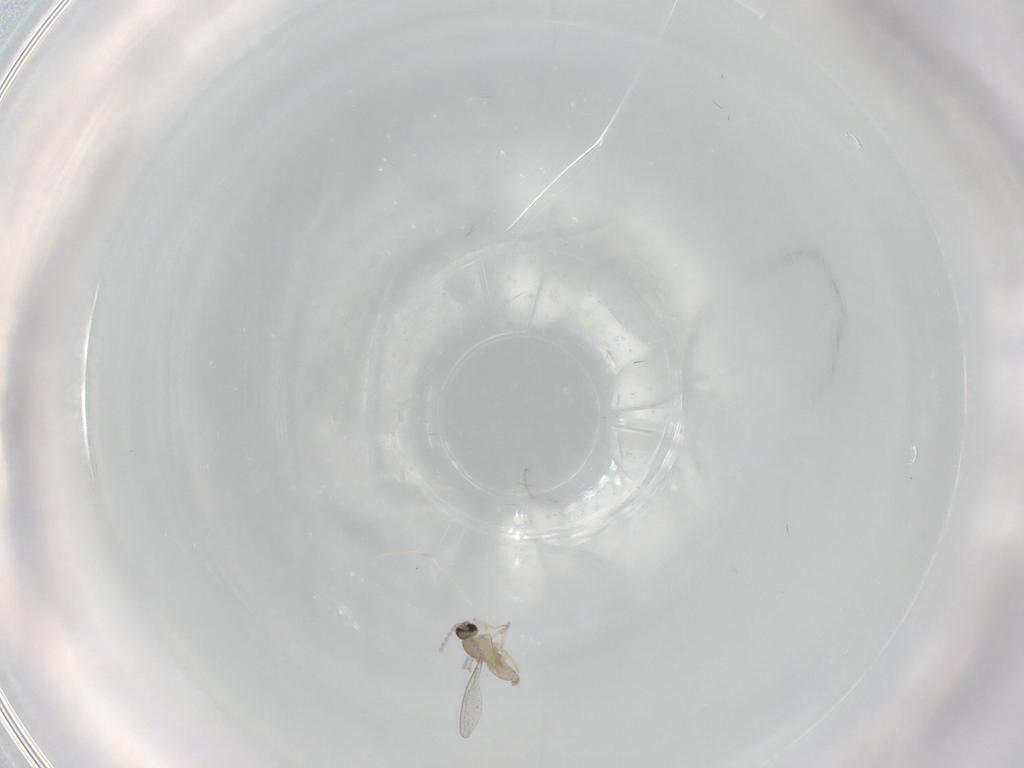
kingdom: Animalia
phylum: Arthropoda
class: Insecta
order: Diptera
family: Cecidomyiidae
